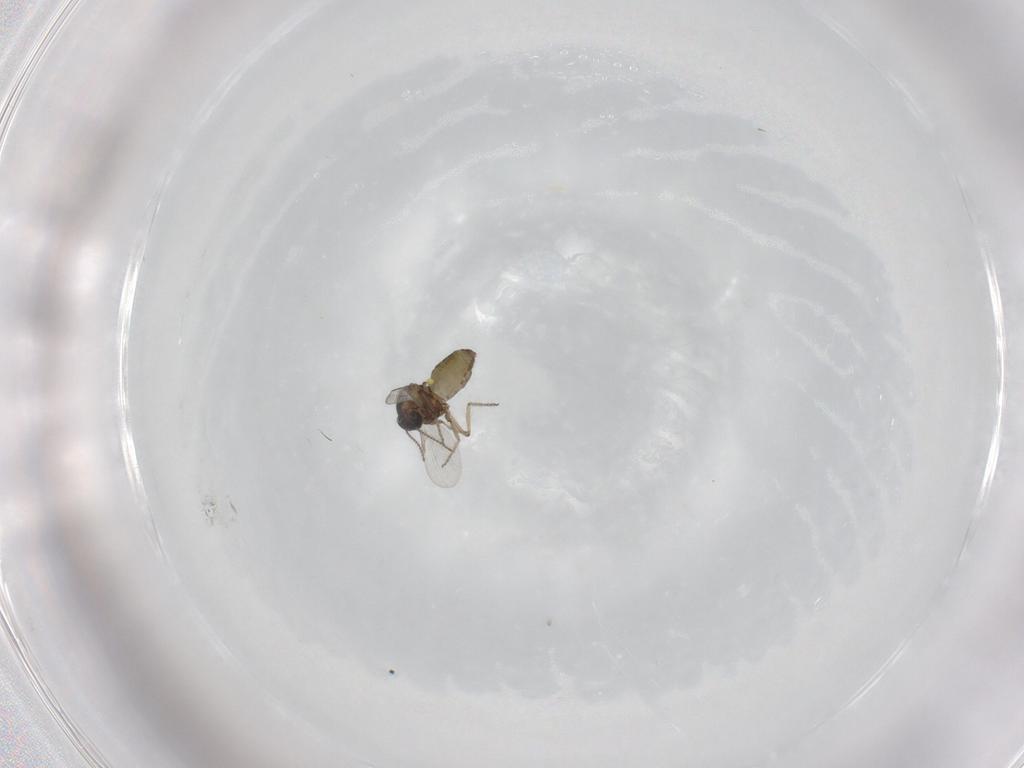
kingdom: Animalia
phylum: Arthropoda
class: Insecta
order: Diptera
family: Ceratopogonidae
